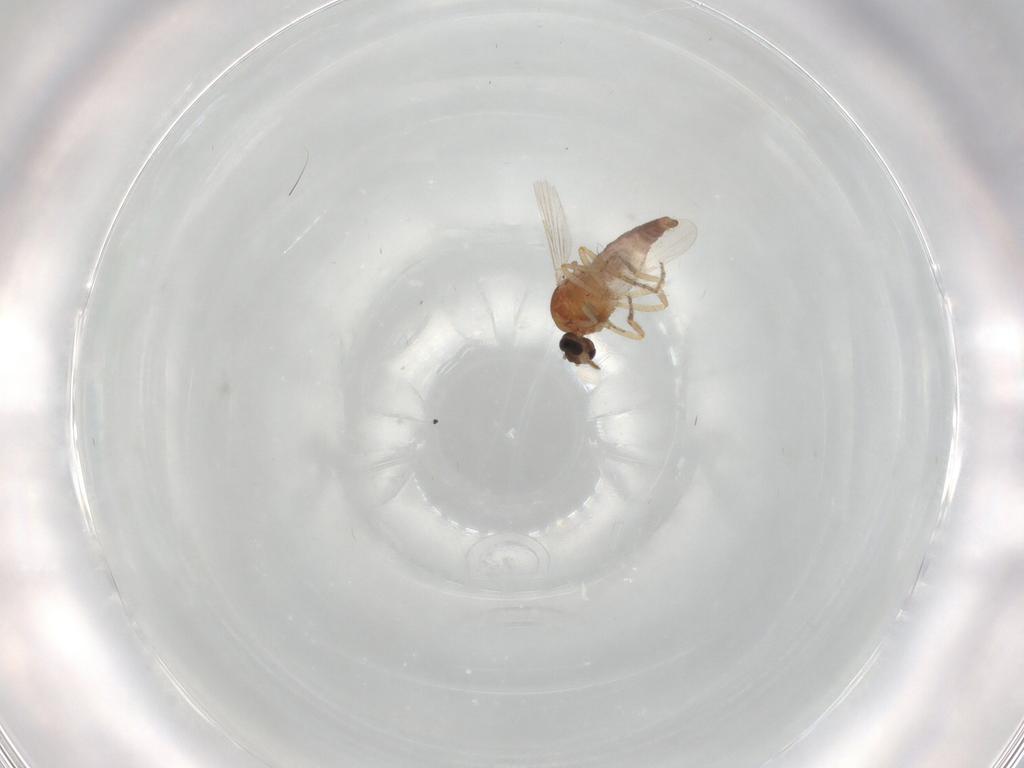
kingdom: Animalia
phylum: Arthropoda
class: Insecta
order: Diptera
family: Ceratopogonidae
